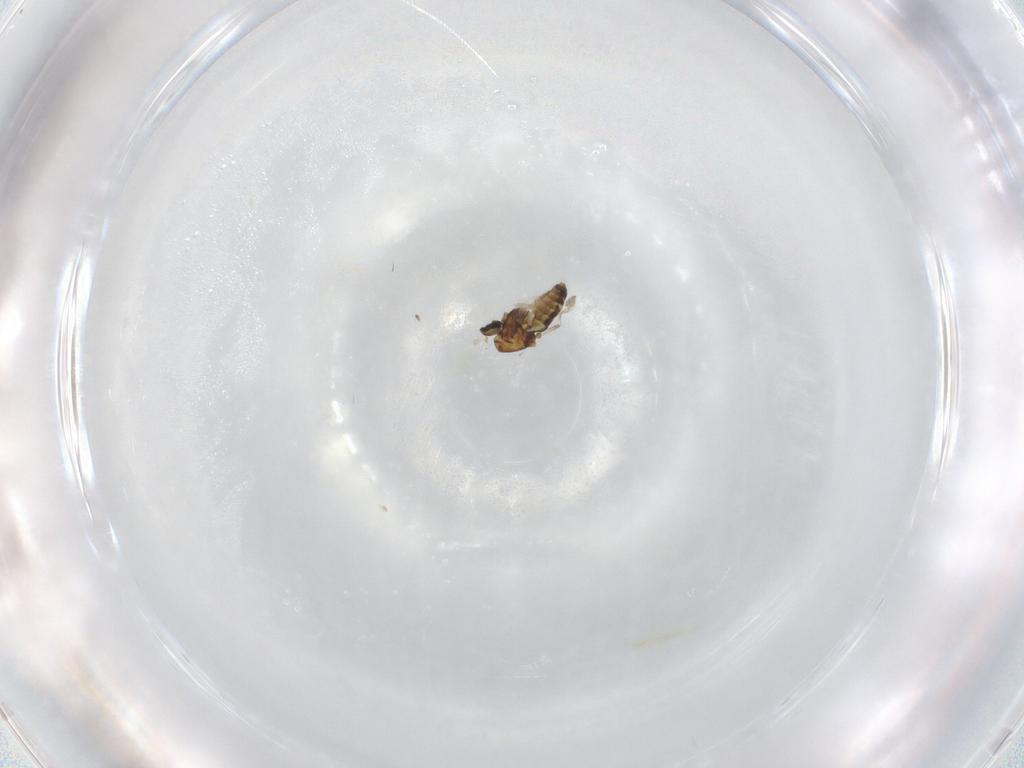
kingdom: Animalia
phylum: Arthropoda
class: Insecta
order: Diptera
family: Ceratopogonidae
